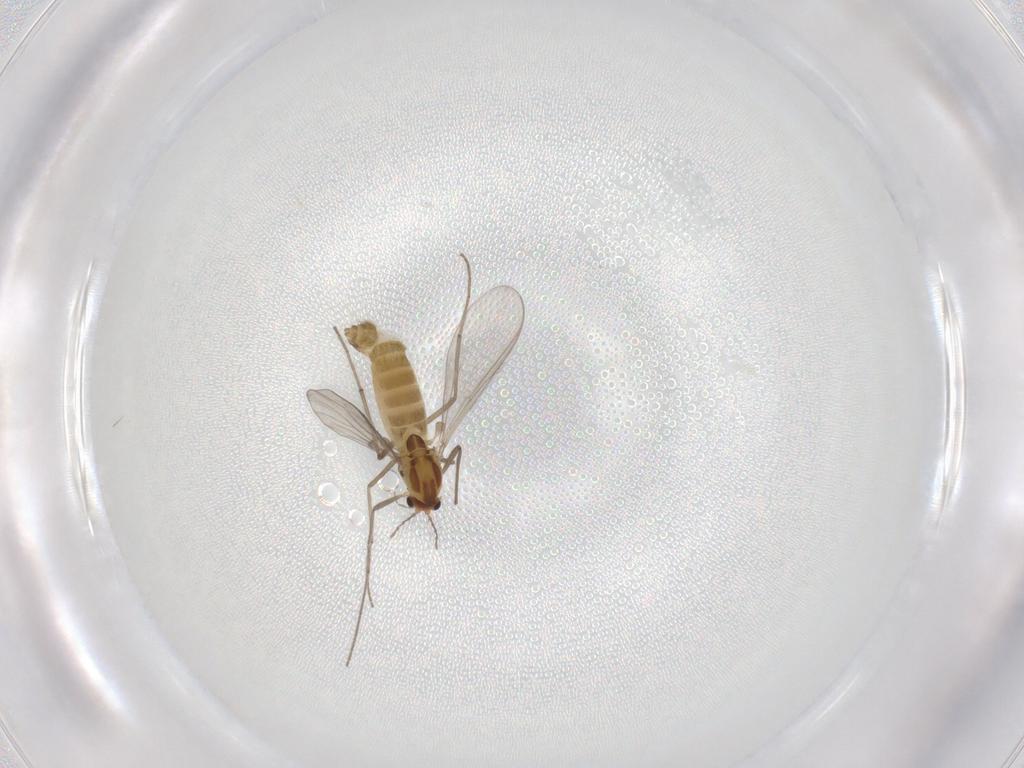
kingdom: Animalia
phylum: Arthropoda
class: Insecta
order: Diptera
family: Chironomidae
